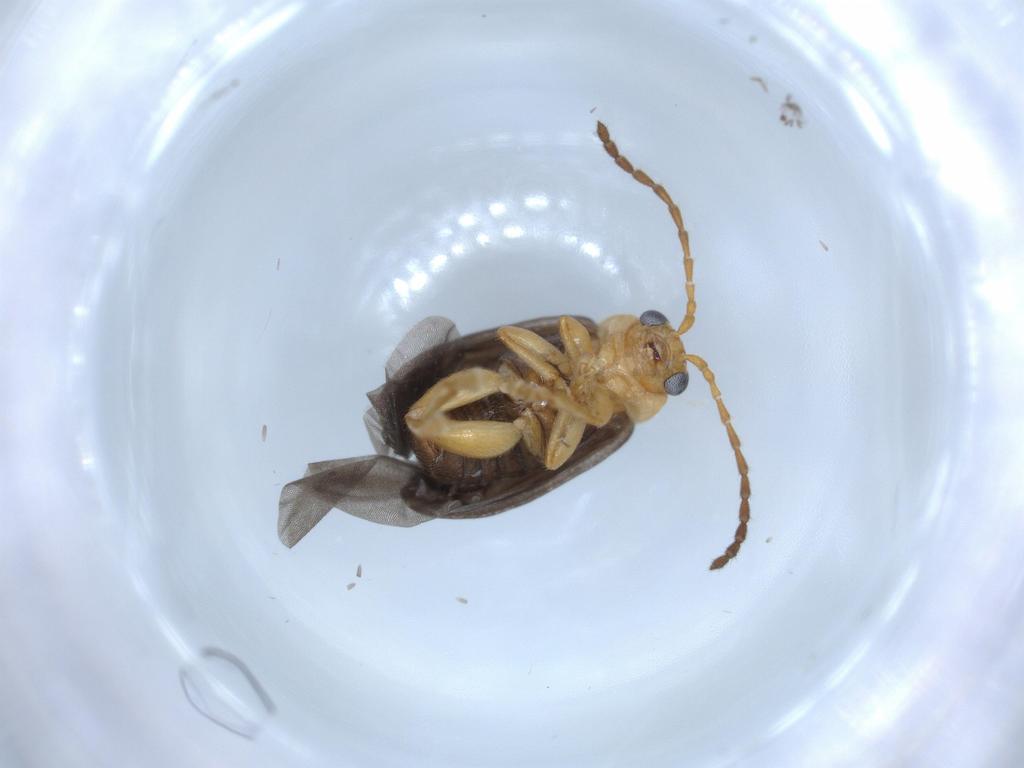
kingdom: Animalia
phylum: Arthropoda
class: Insecta
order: Coleoptera
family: Chrysomelidae
